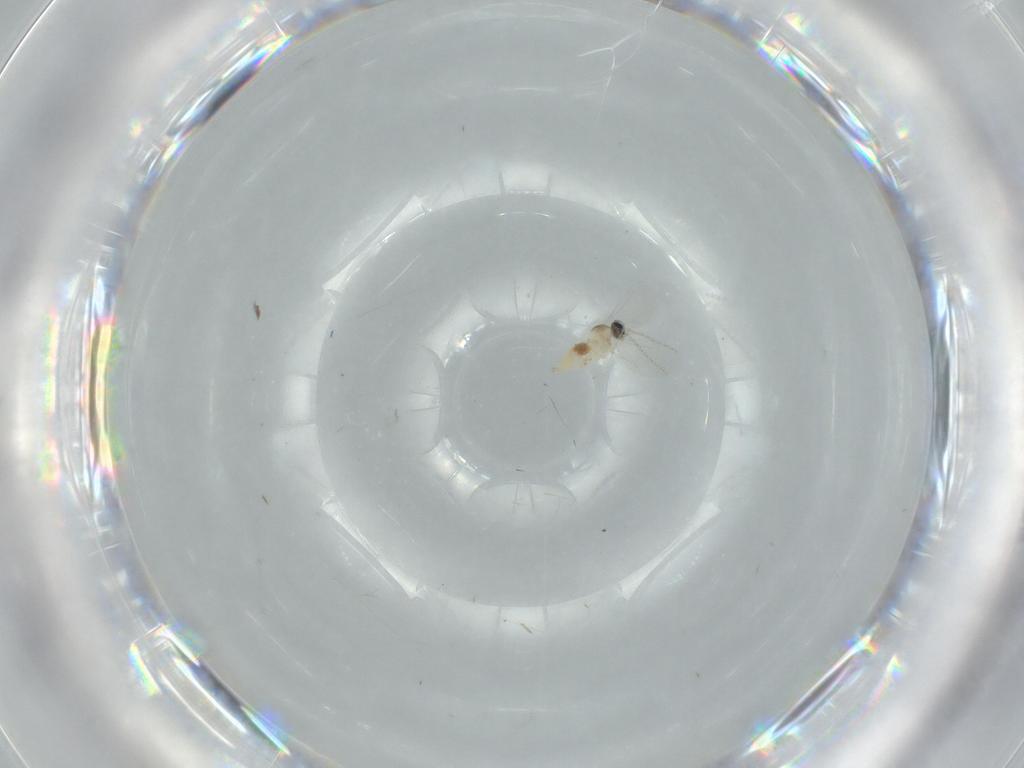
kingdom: Animalia
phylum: Arthropoda
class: Insecta
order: Diptera
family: Cecidomyiidae
